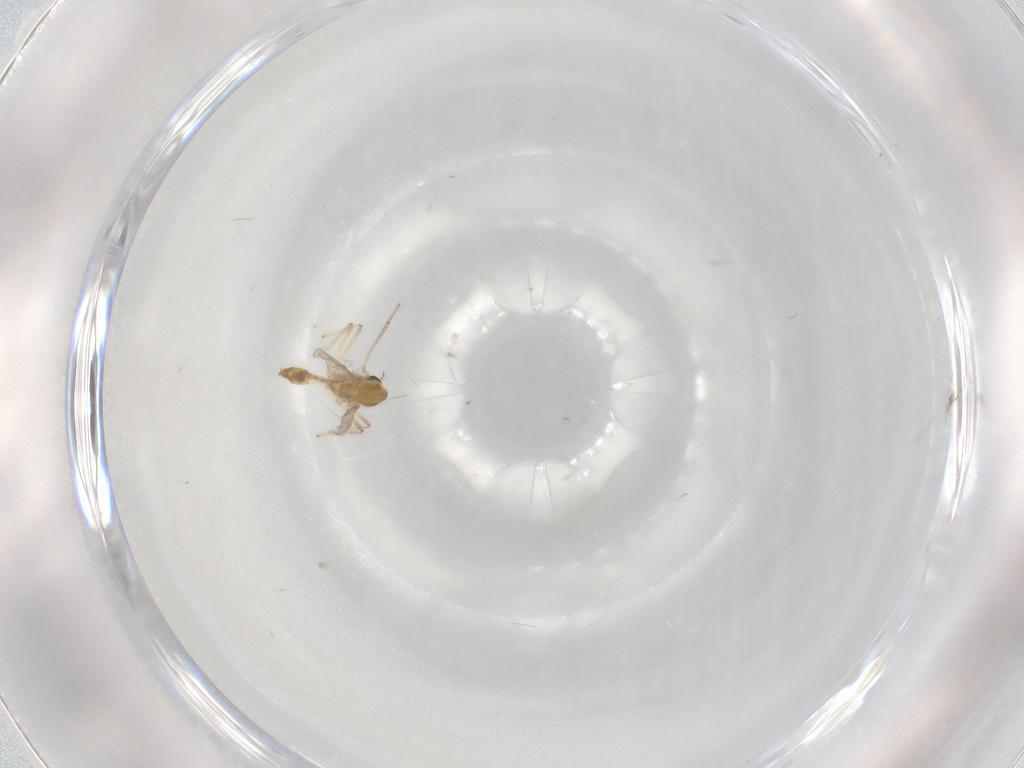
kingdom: Animalia
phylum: Arthropoda
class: Insecta
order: Diptera
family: Chironomidae
